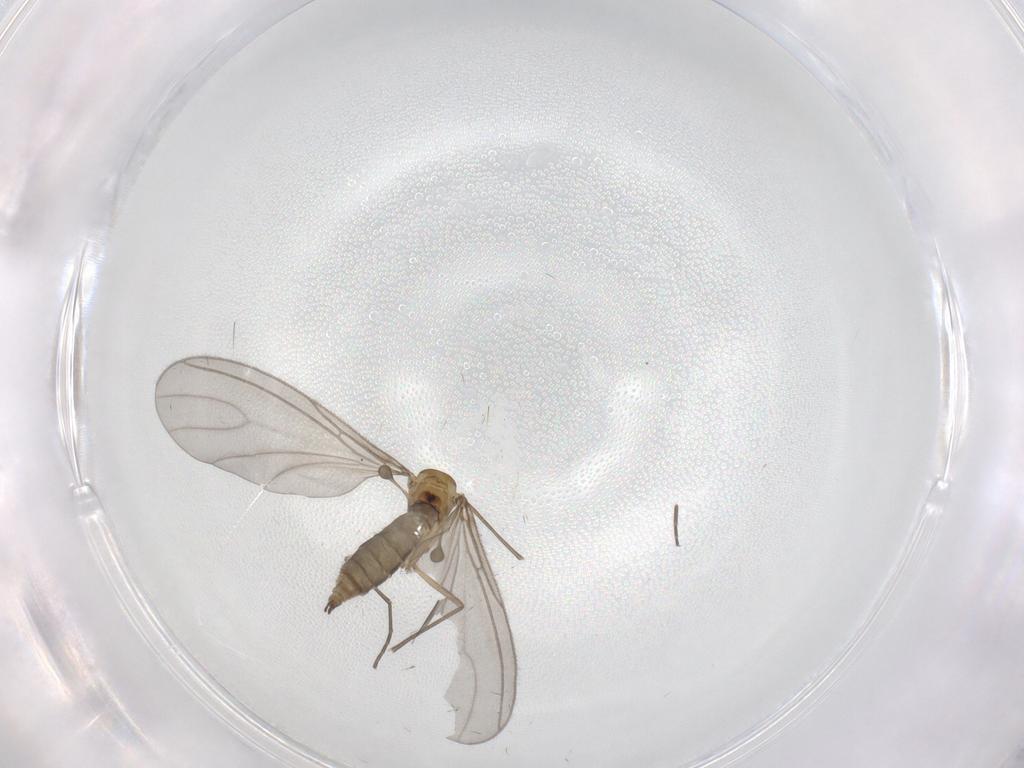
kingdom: Animalia
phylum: Arthropoda
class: Insecta
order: Diptera
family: Sciaridae
